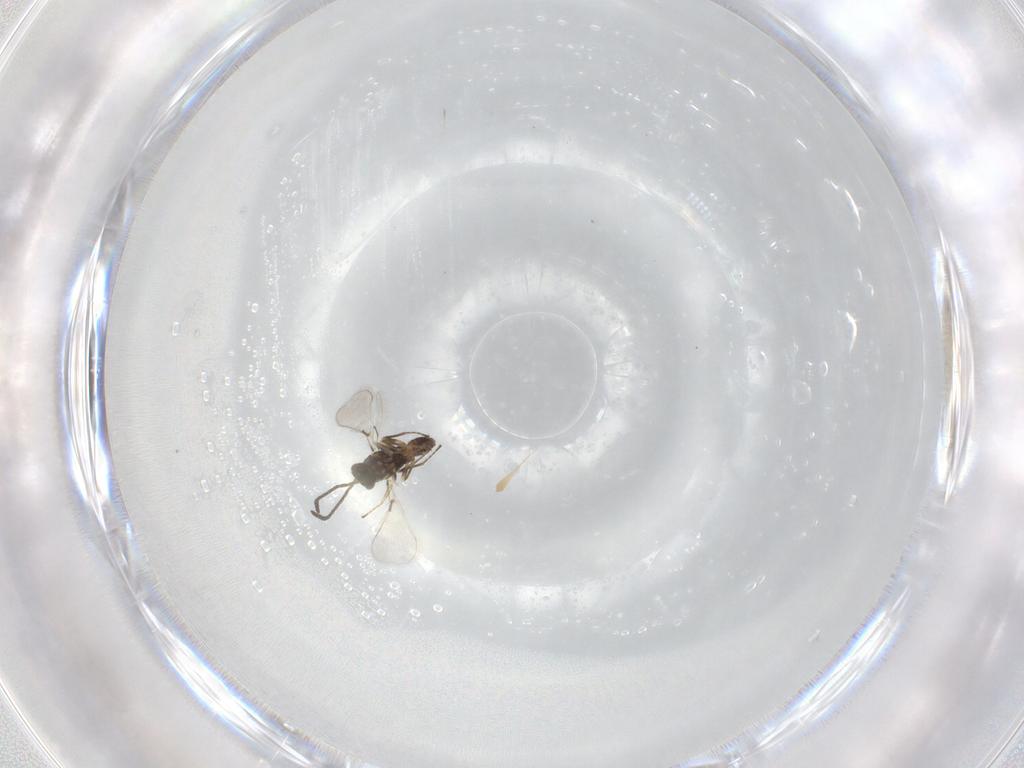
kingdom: Animalia
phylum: Arthropoda
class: Insecta
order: Hymenoptera
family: Mymaridae
